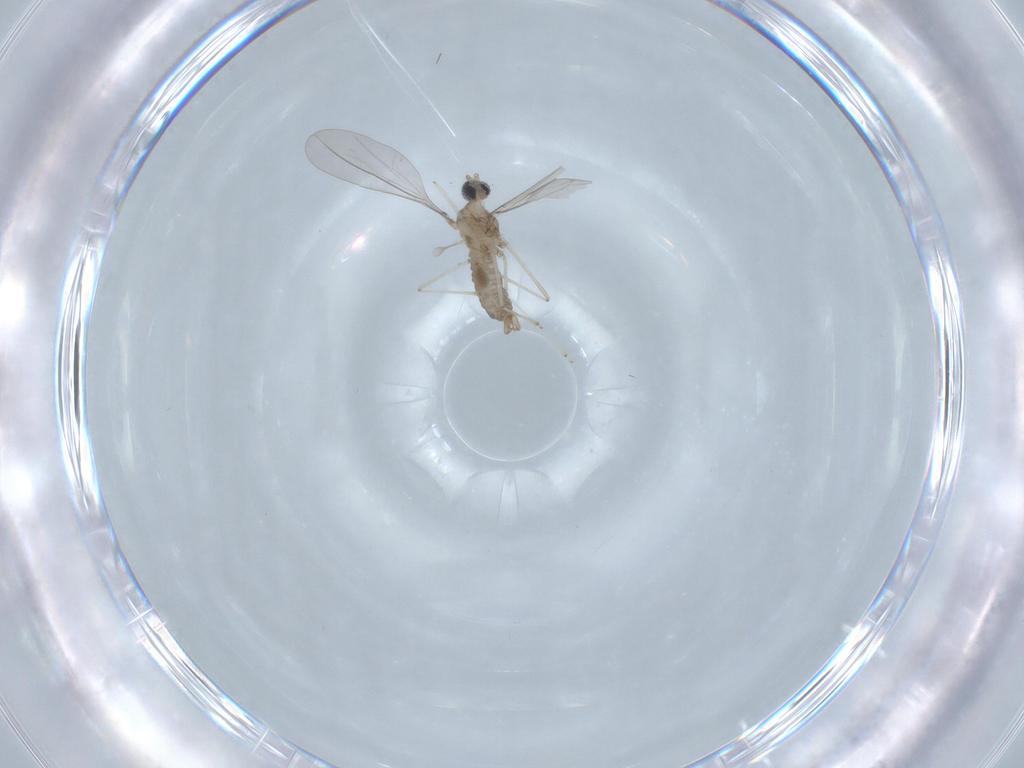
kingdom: Animalia
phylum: Arthropoda
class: Insecta
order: Diptera
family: Cecidomyiidae
